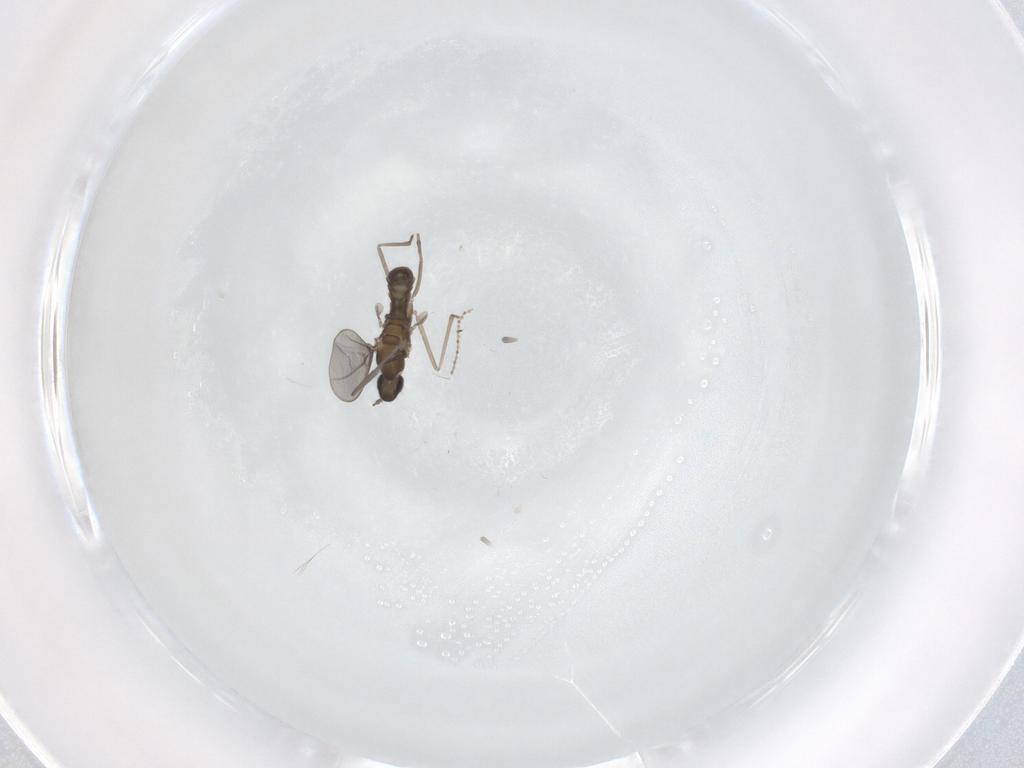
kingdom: Animalia
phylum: Arthropoda
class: Insecta
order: Diptera
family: Cecidomyiidae
